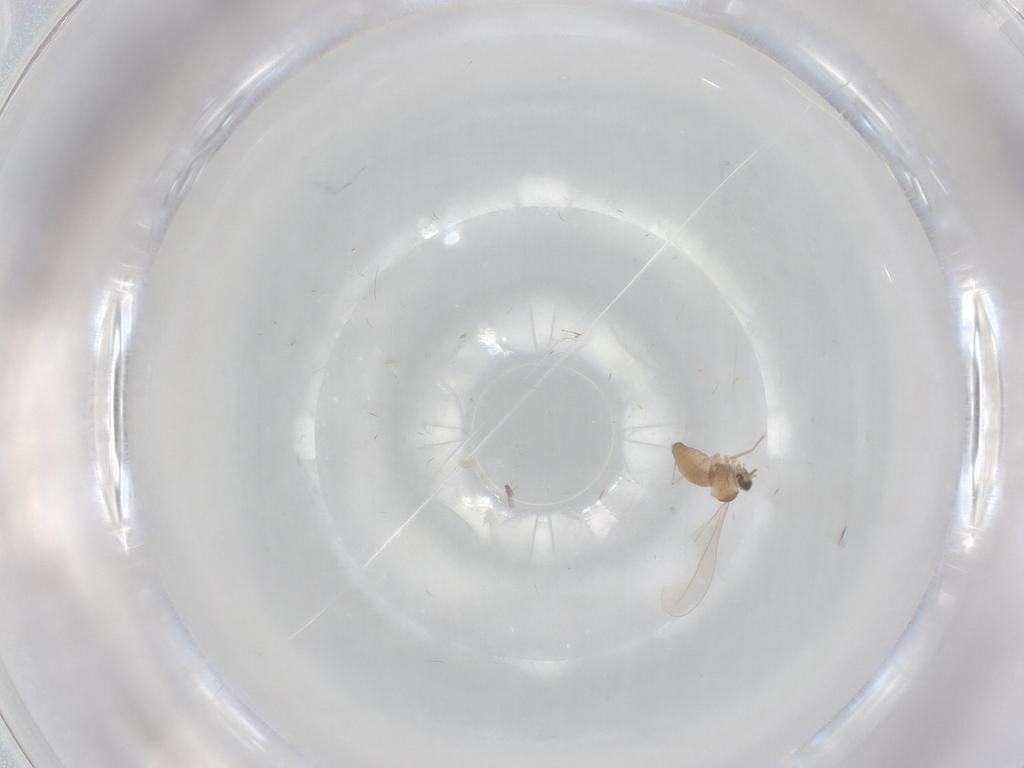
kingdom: Animalia
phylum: Arthropoda
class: Insecta
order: Diptera
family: Cecidomyiidae
